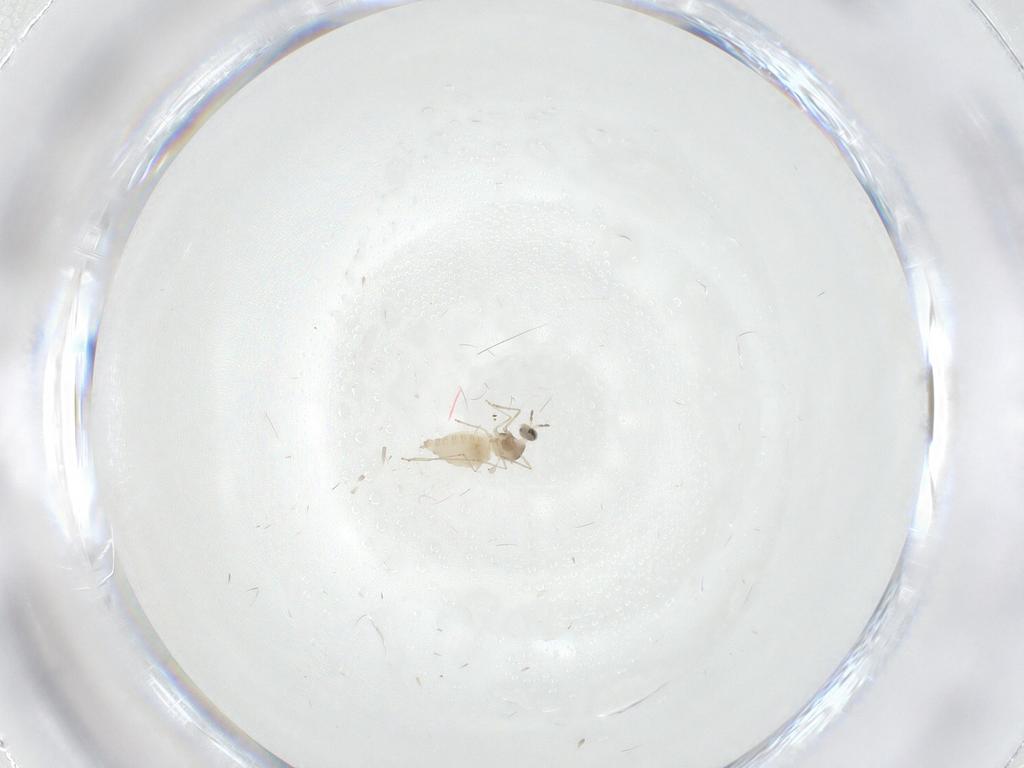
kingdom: Animalia
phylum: Arthropoda
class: Insecta
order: Diptera
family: Cecidomyiidae
